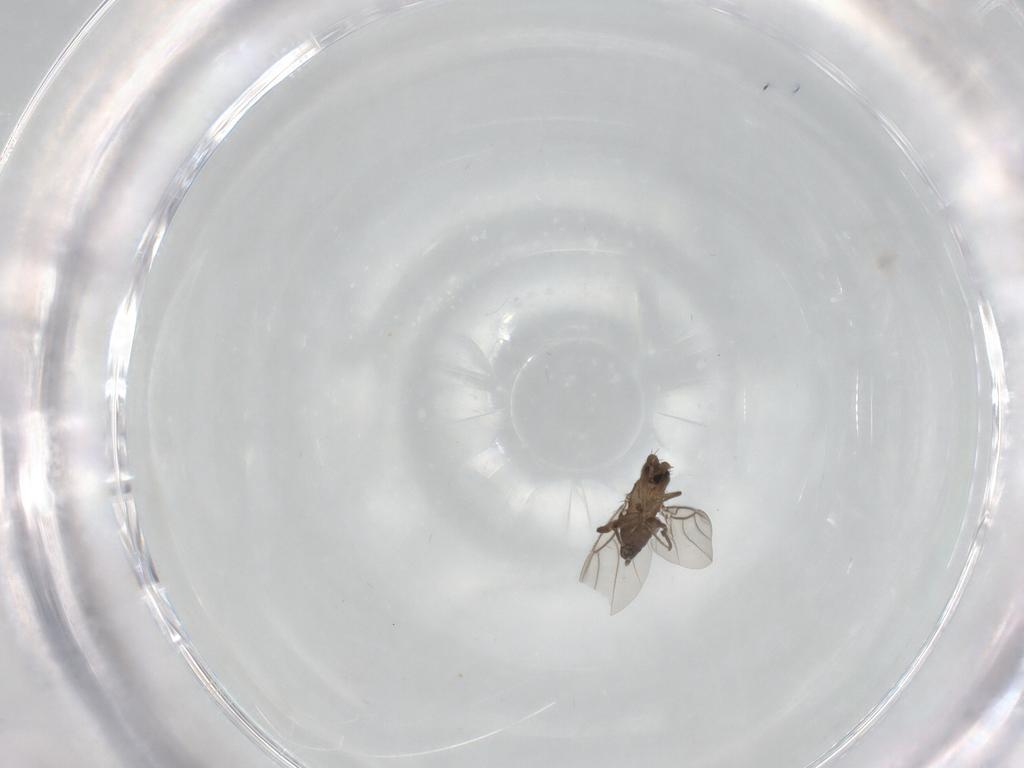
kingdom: Animalia
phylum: Arthropoda
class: Insecta
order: Diptera
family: Phoridae
